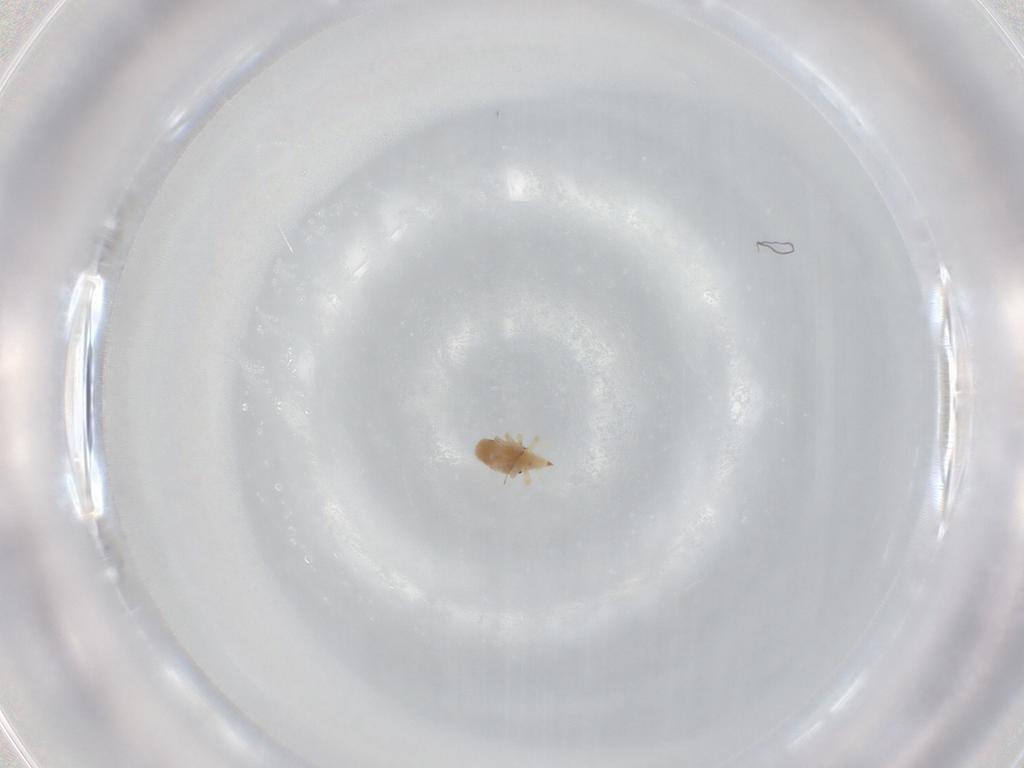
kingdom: Animalia
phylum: Arthropoda
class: Arachnida
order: Trombidiformes
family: Bdellidae
